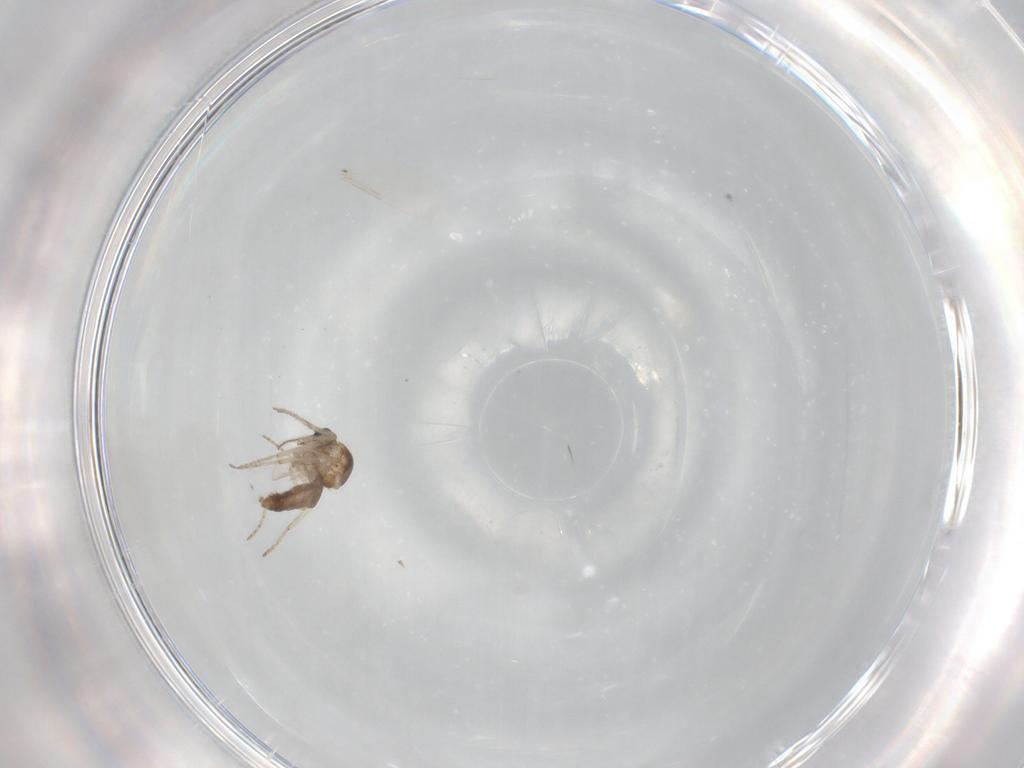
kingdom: Animalia
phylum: Arthropoda
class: Insecta
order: Diptera
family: Ceratopogonidae
